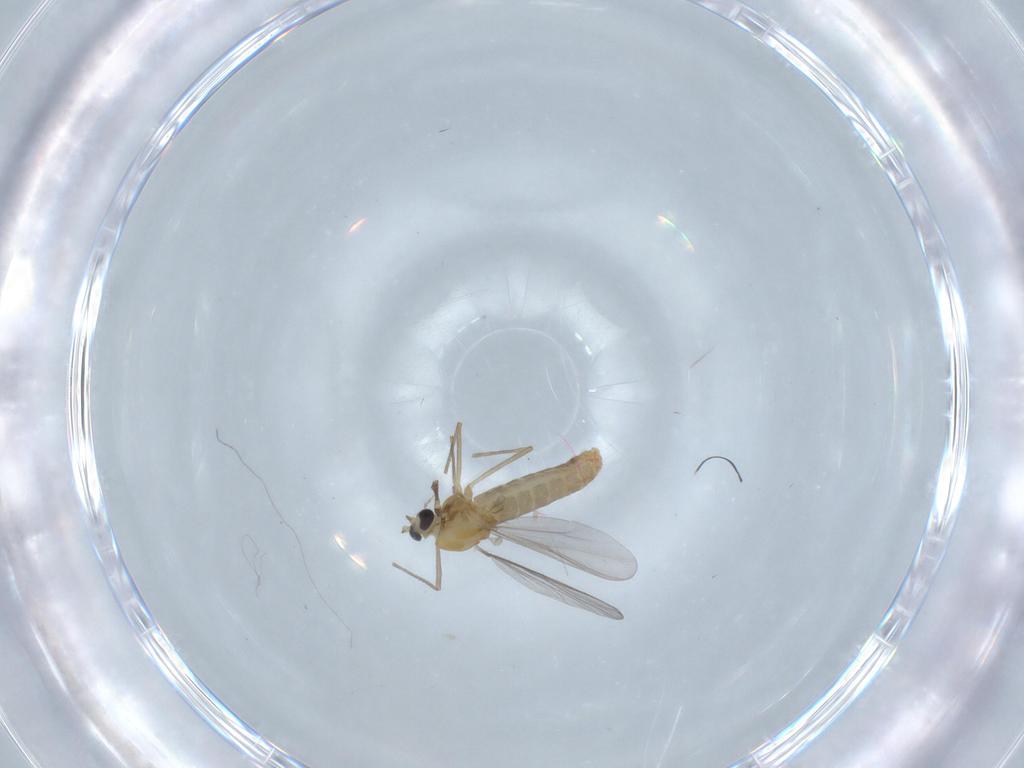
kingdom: Animalia
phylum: Arthropoda
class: Insecta
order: Diptera
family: Chironomidae
